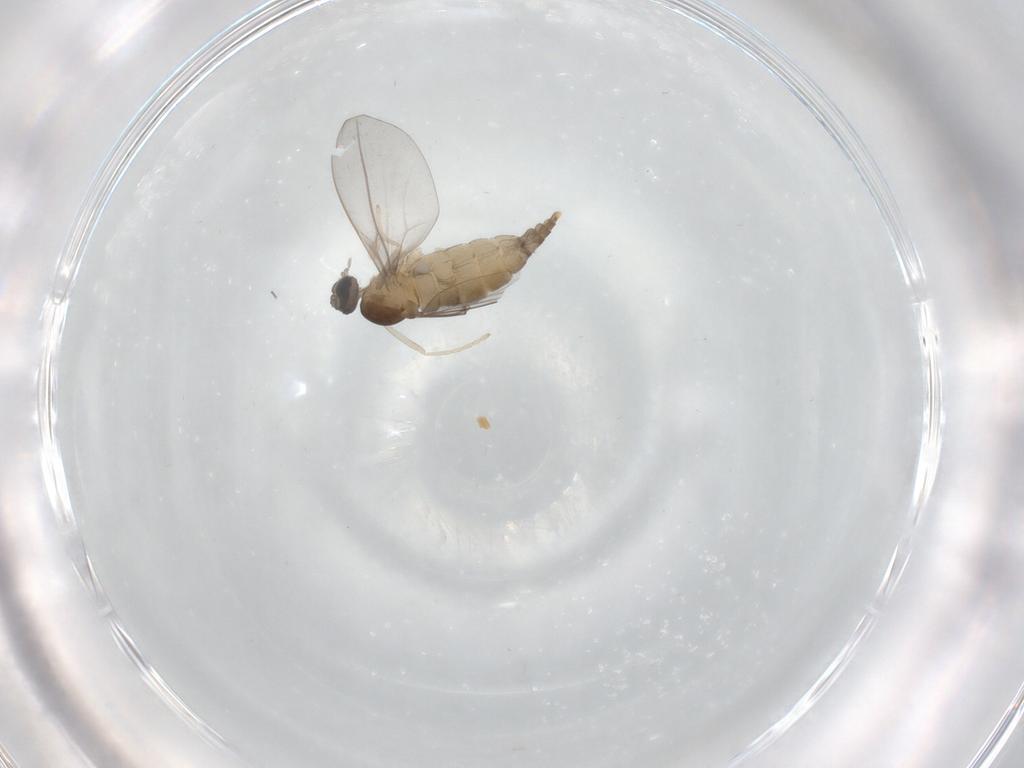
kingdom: Animalia
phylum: Arthropoda
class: Insecta
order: Diptera
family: Cecidomyiidae
